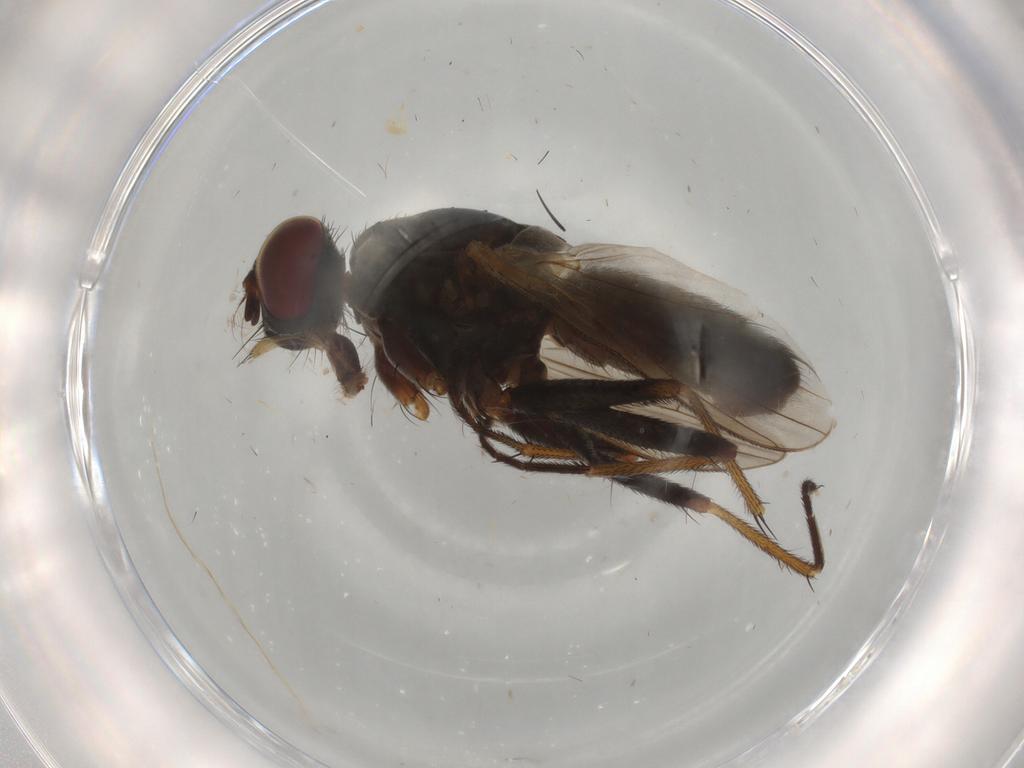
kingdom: Animalia
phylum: Arthropoda
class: Insecta
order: Diptera
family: Muscidae
